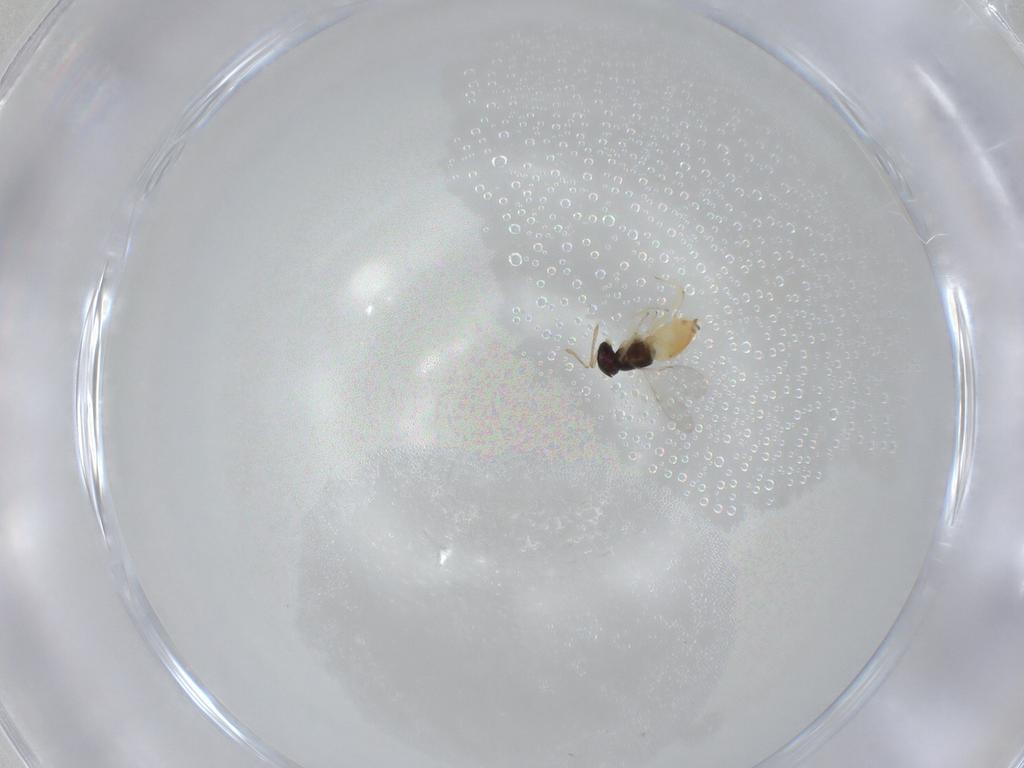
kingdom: Animalia
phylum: Arthropoda
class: Insecta
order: Hymenoptera
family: Encyrtidae
